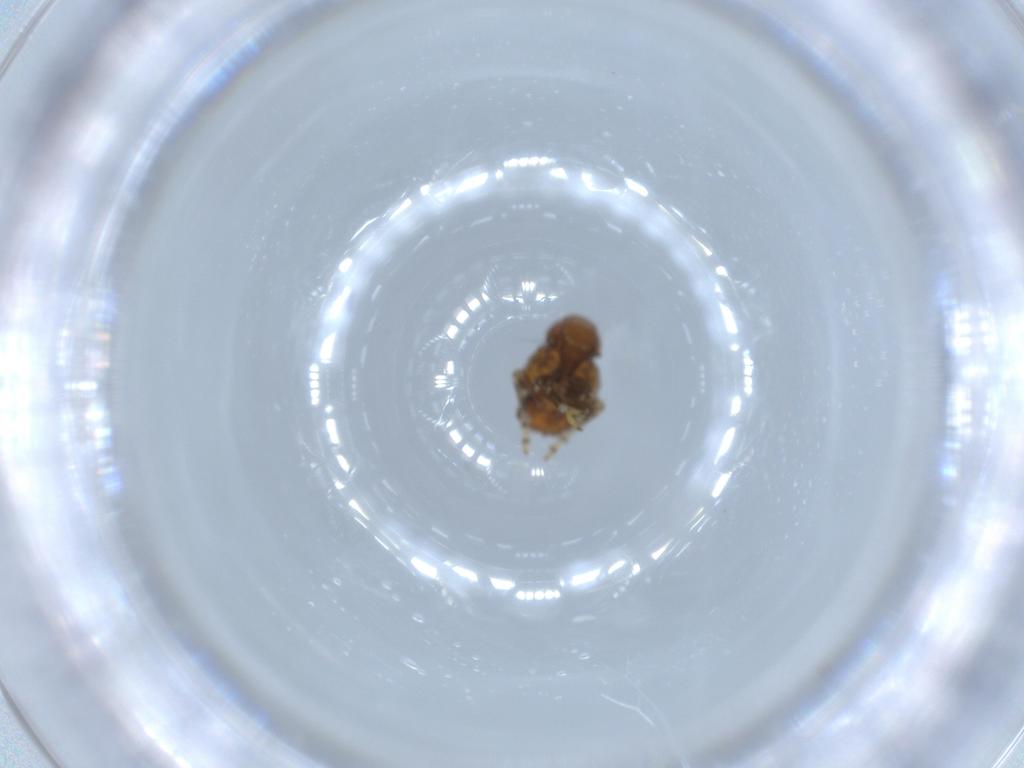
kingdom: Animalia
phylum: Arthropoda
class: Insecta
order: Hemiptera
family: Issidae
